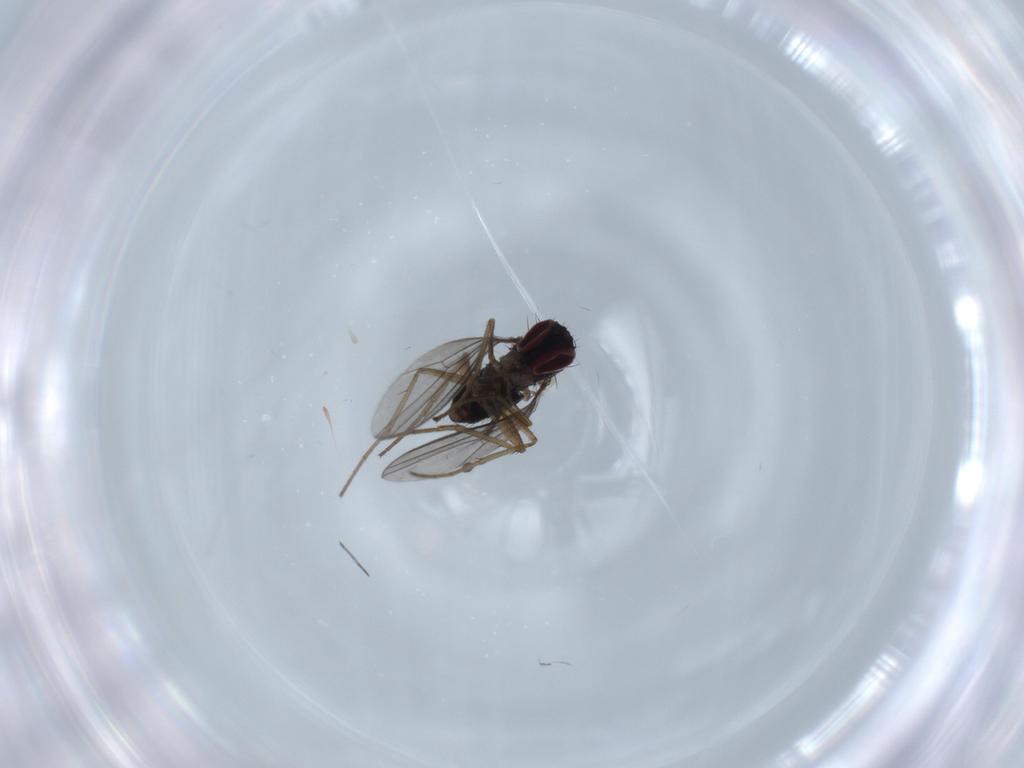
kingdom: Animalia
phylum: Arthropoda
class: Insecta
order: Diptera
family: Dolichopodidae
